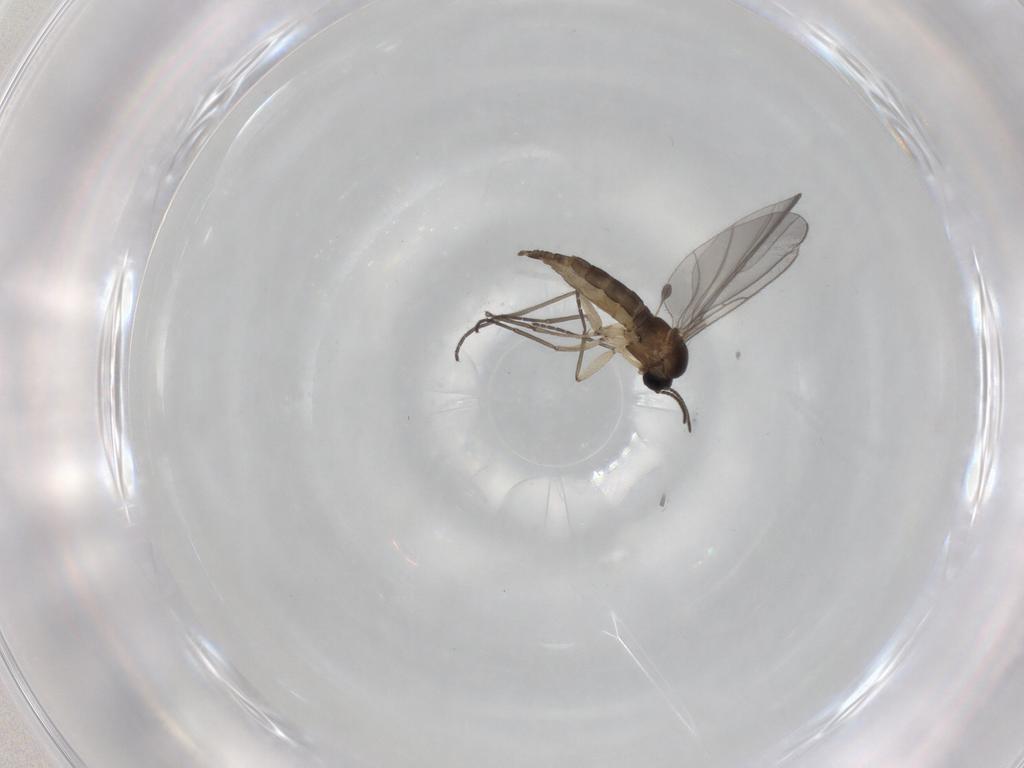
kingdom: Animalia
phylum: Arthropoda
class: Insecta
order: Diptera
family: Sciaridae
